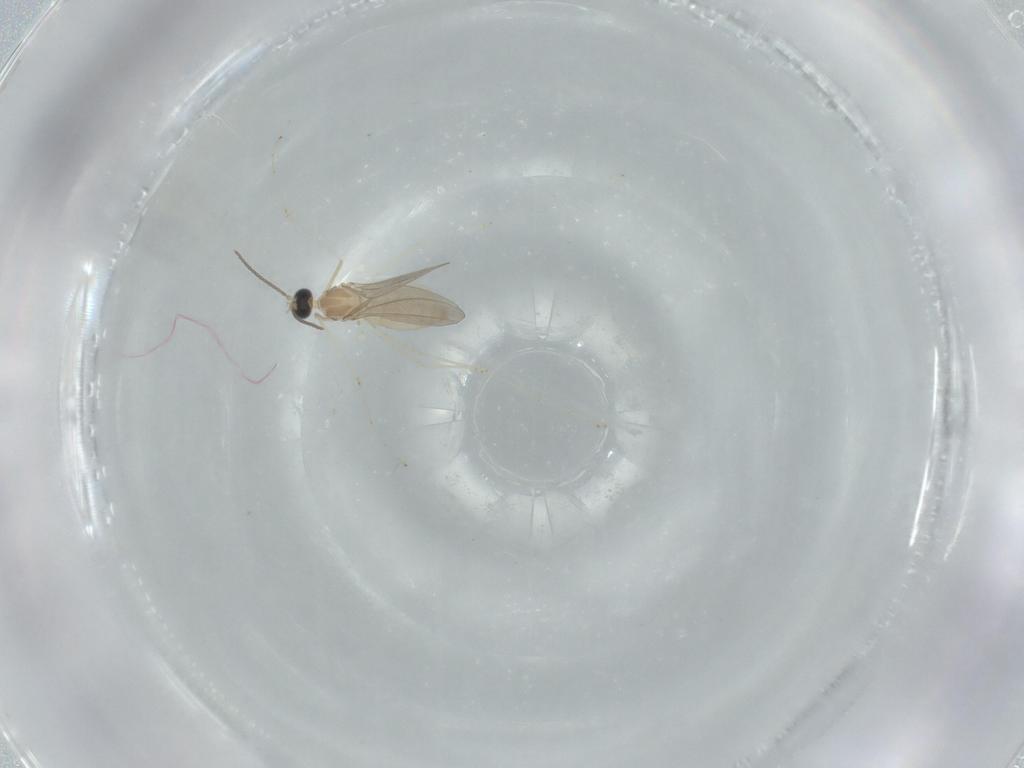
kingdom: Animalia
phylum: Arthropoda
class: Insecta
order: Diptera
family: Cecidomyiidae
